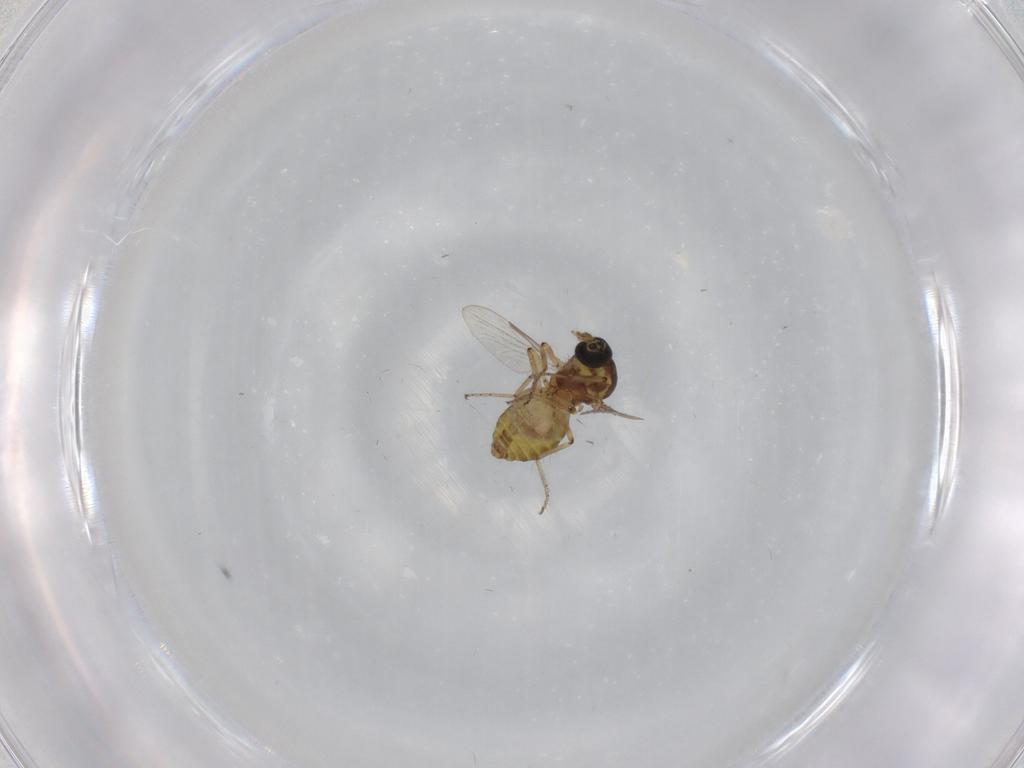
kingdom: Animalia
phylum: Arthropoda
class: Insecta
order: Diptera
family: Ceratopogonidae
